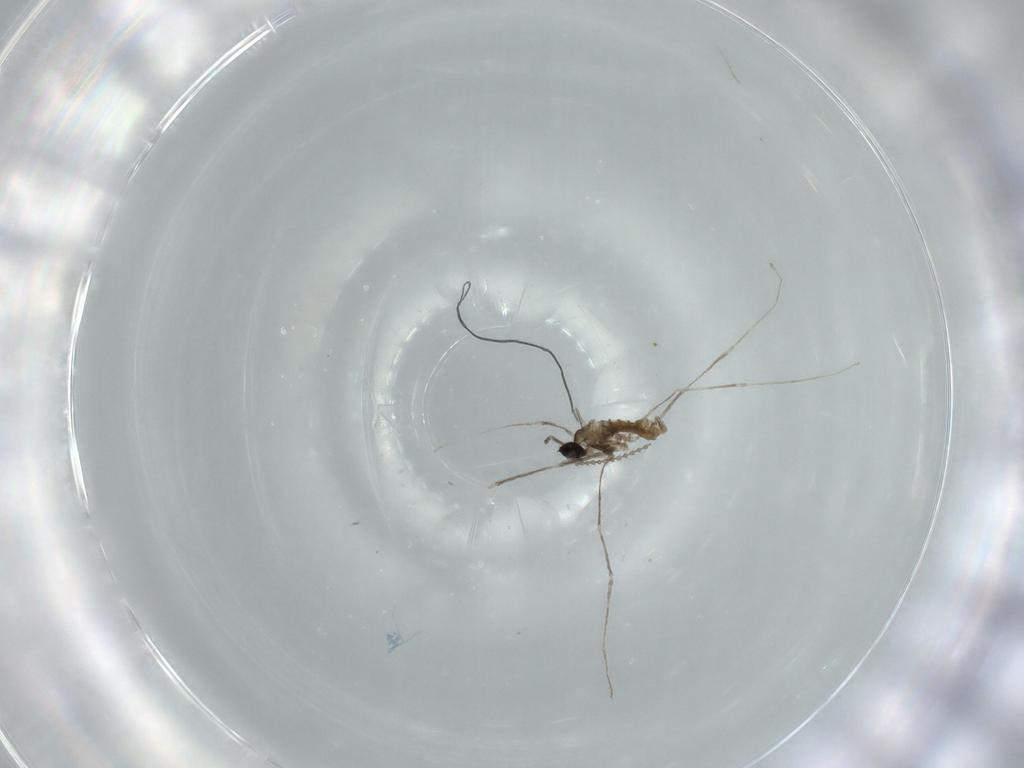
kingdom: Animalia
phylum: Arthropoda
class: Insecta
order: Diptera
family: Cecidomyiidae
